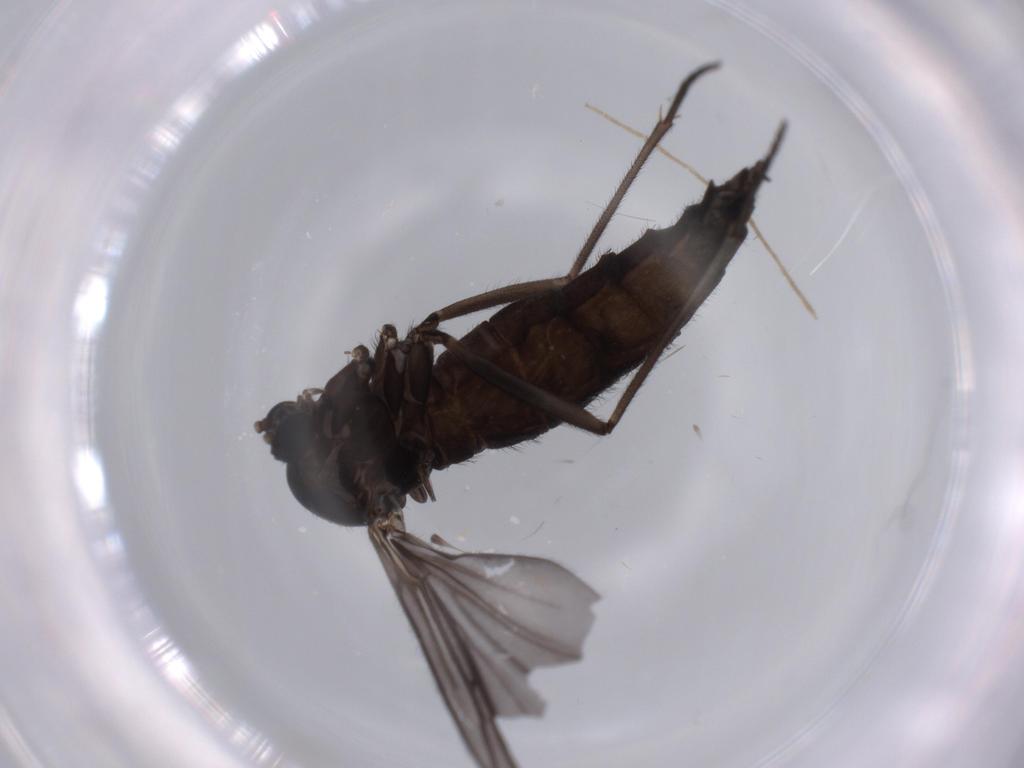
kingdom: Animalia
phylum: Arthropoda
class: Insecta
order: Diptera
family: Sciaridae
